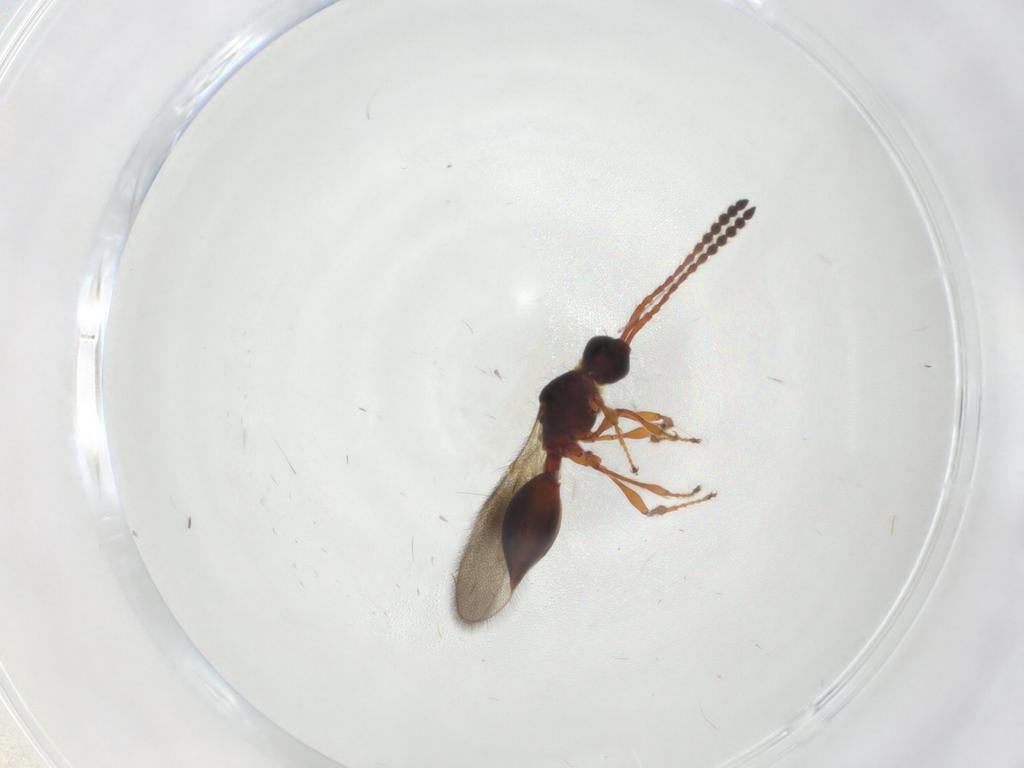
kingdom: Animalia
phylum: Arthropoda
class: Insecta
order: Hymenoptera
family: Diapriidae
